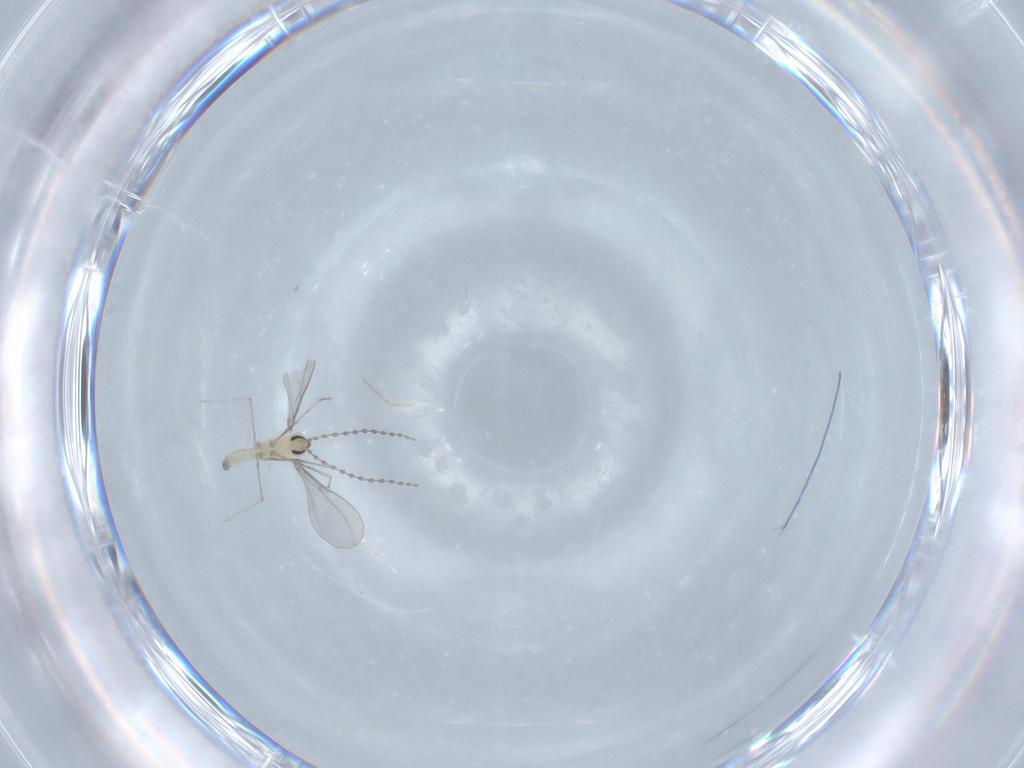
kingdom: Animalia
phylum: Arthropoda
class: Insecta
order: Diptera
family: Cecidomyiidae
